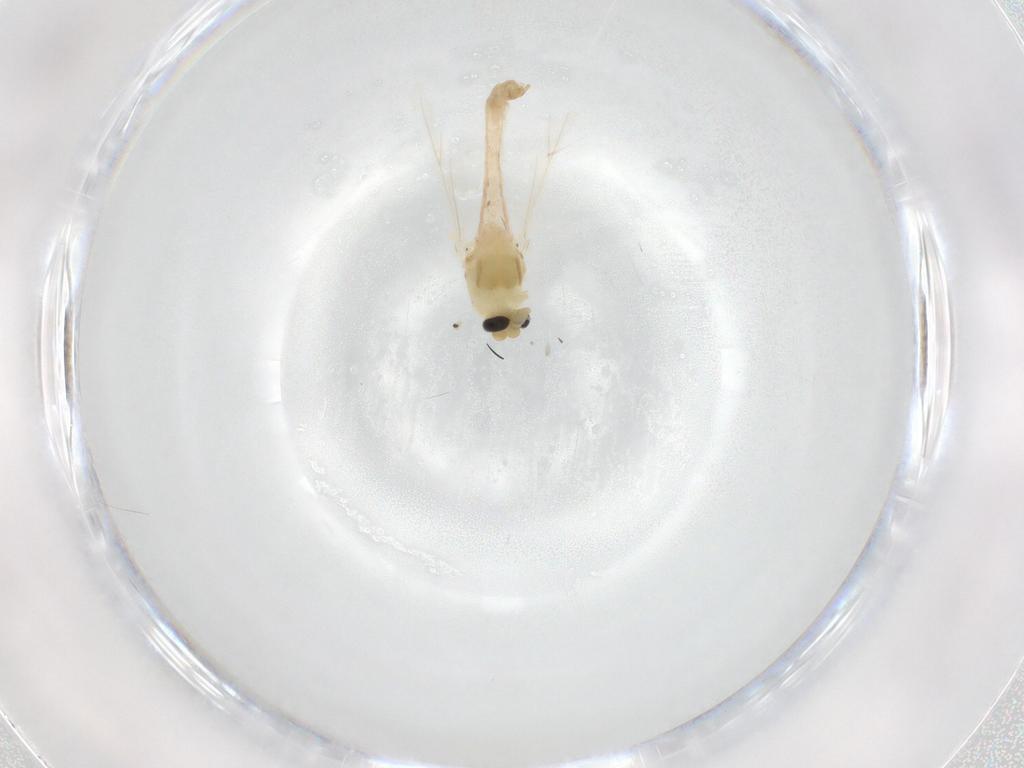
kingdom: Animalia
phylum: Arthropoda
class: Insecta
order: Diptera
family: Chironomidae
